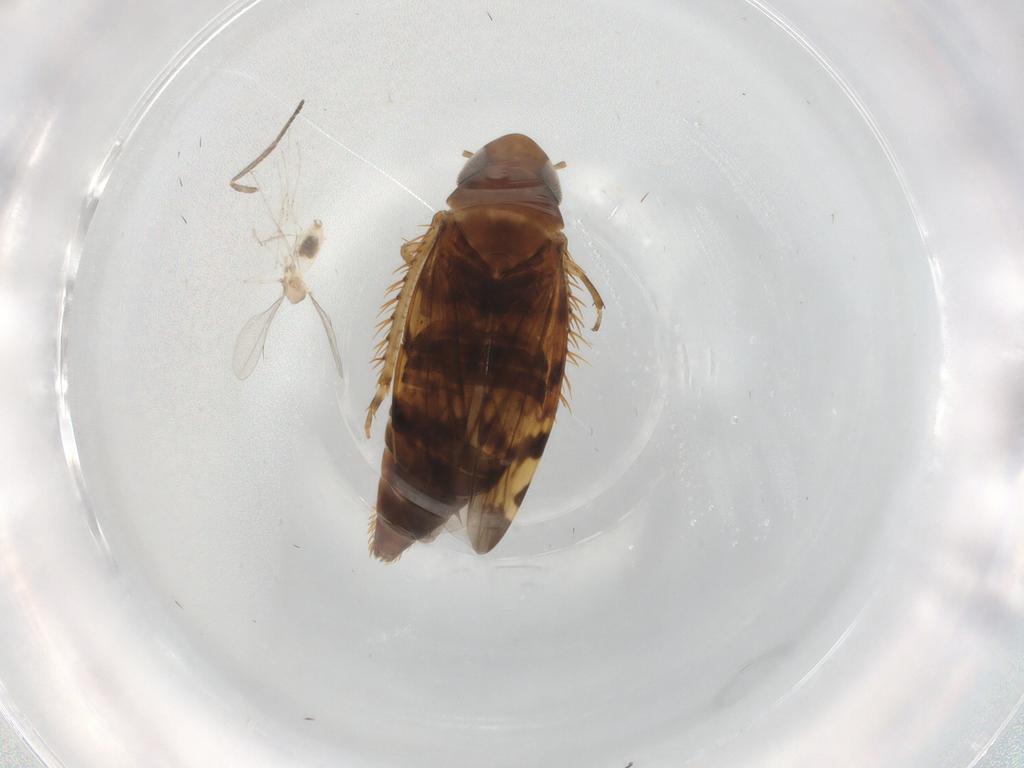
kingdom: Animalia
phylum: Arthropoda
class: Insecta
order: Hemiptera
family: Cicadellidae
